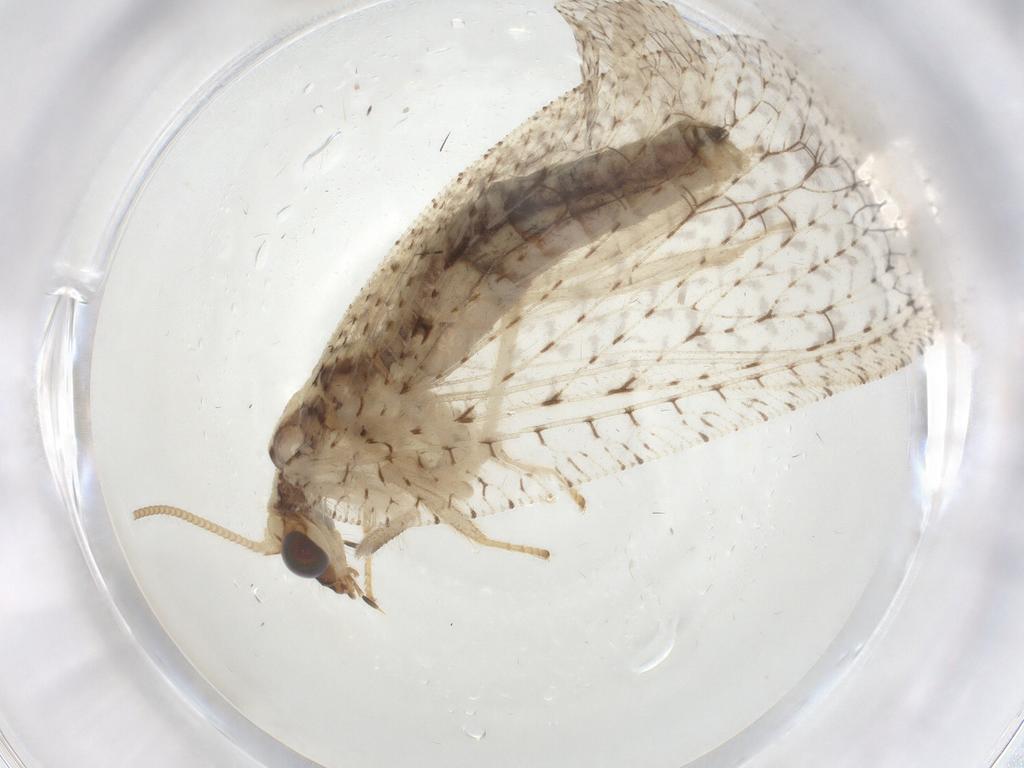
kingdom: Animalia
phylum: Arthropoda
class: Insecta
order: Neuroptera
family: Hemerobiidae
